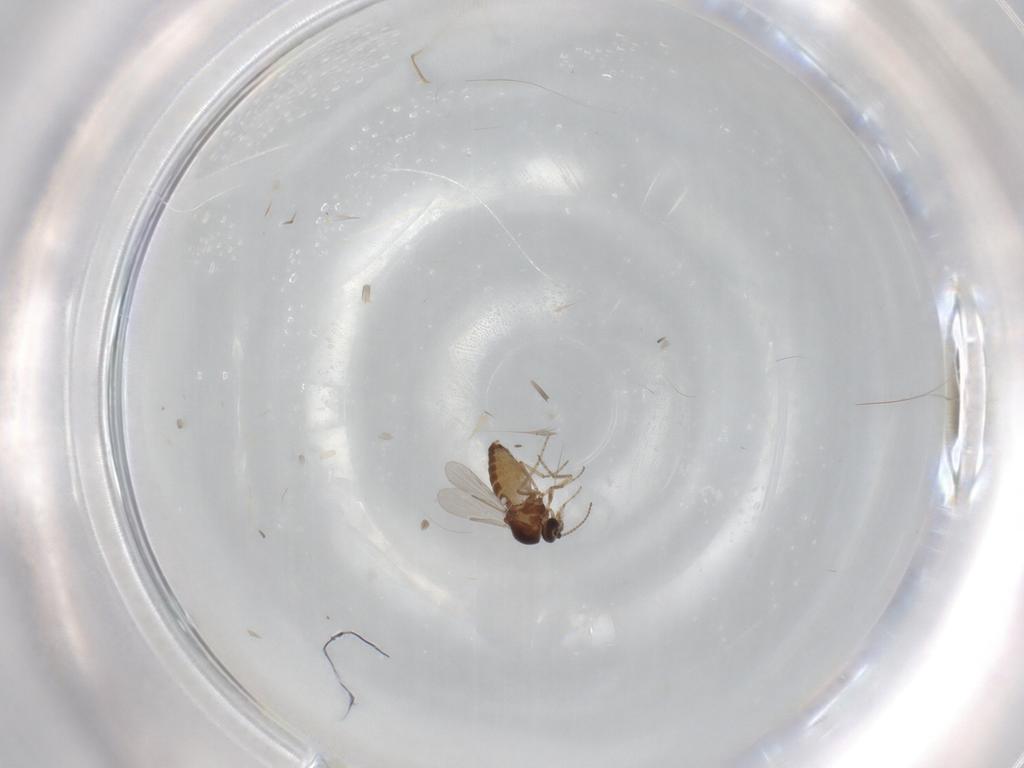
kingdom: Animalia
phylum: Arthropoda
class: Insecta
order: Diptera
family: Ceratopogonidae
